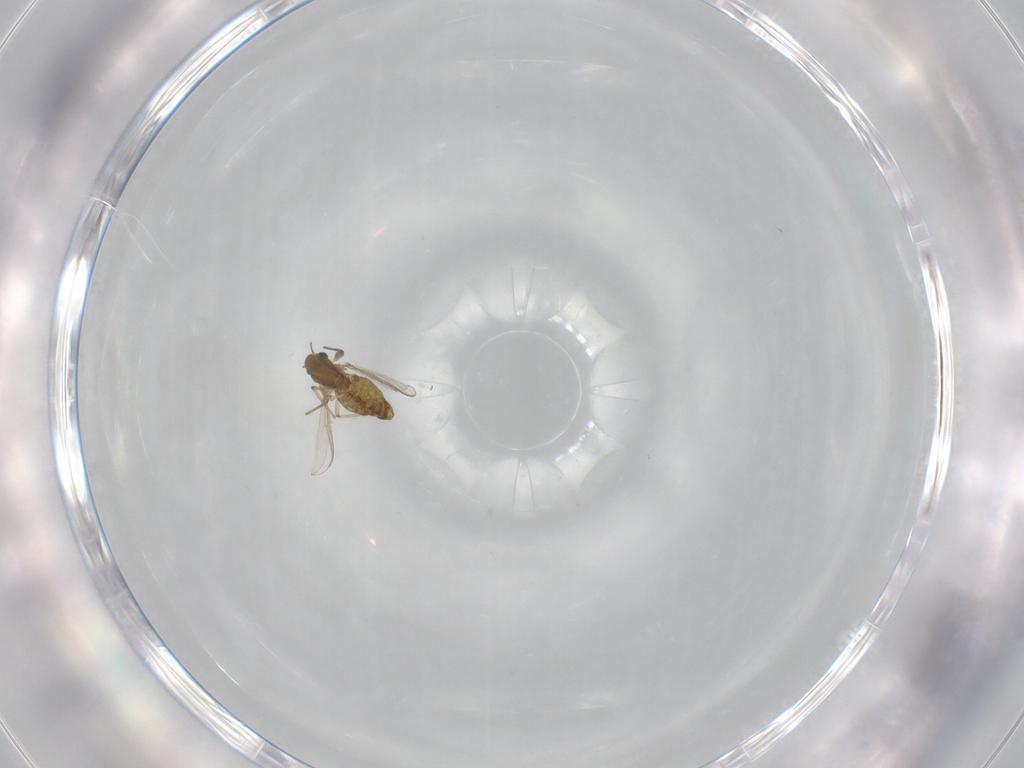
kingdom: Animalia
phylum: Arthropoda
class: Insecta
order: Diptera
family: Chironomidae
